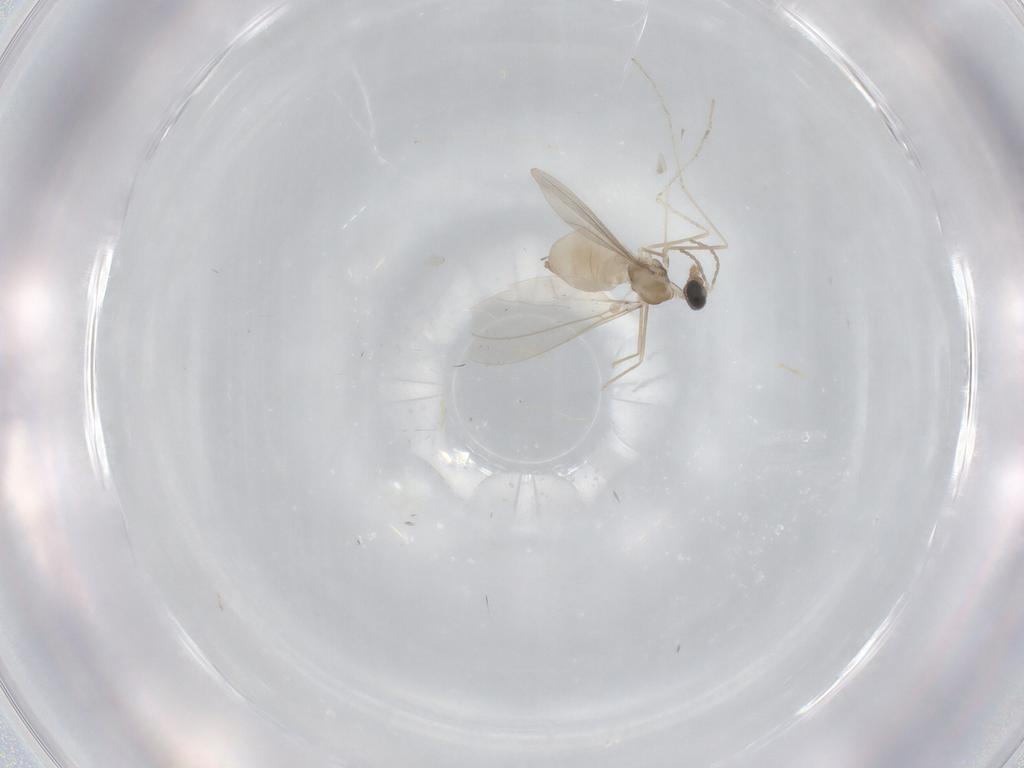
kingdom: Animalia
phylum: Arthropoda
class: Insecta
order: Diptera
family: Cecidomyiidae
